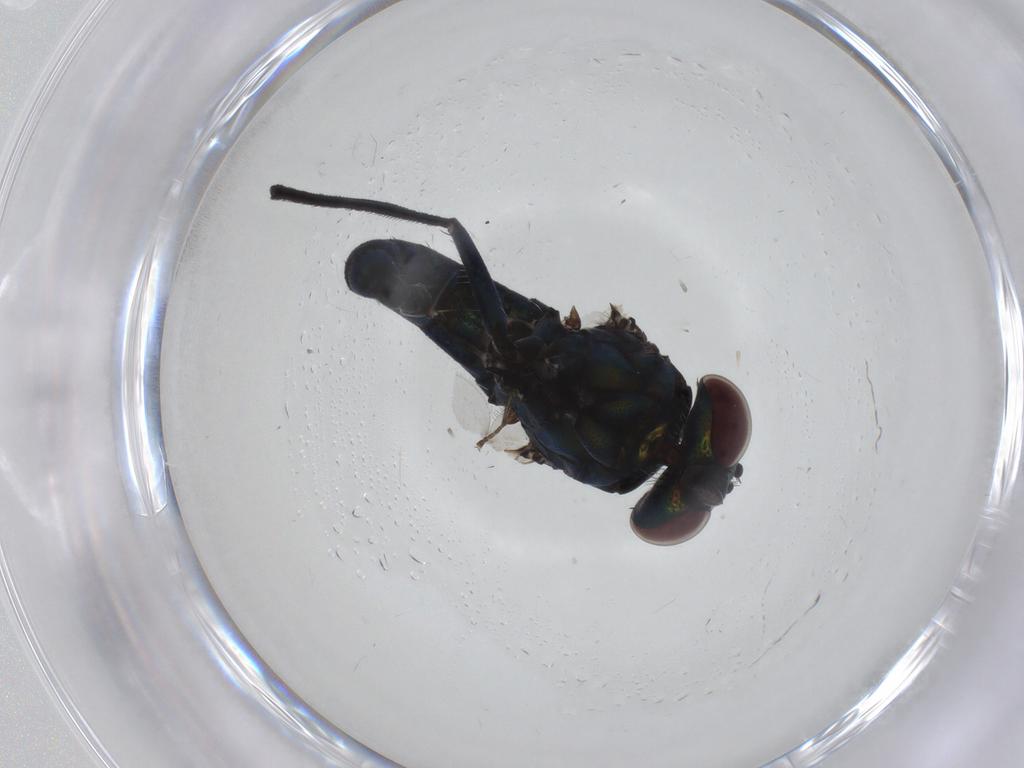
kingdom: Animalia
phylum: Arthropoda
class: Insecta
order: Diptera
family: Dolichopodidae
